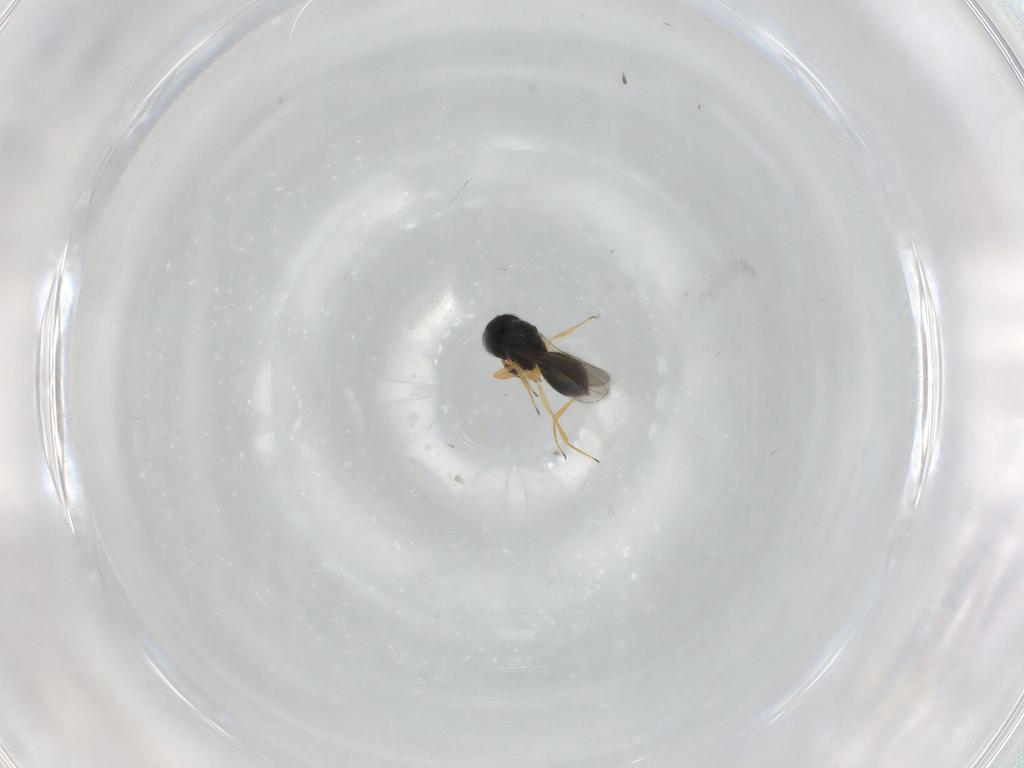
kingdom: Animalia
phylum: Arthropoda
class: Insecta
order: Hymenoptera
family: Scelionidae
